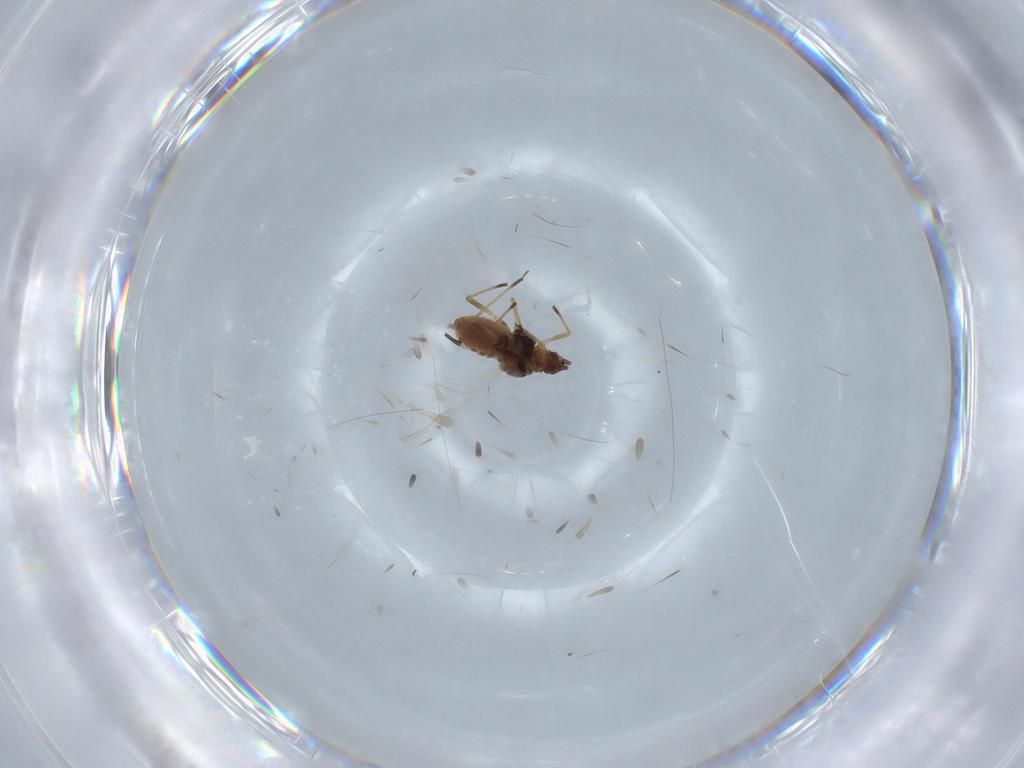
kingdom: Animalia
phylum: Arthropoda
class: Insecta
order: Hemiptera
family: Aphididae
